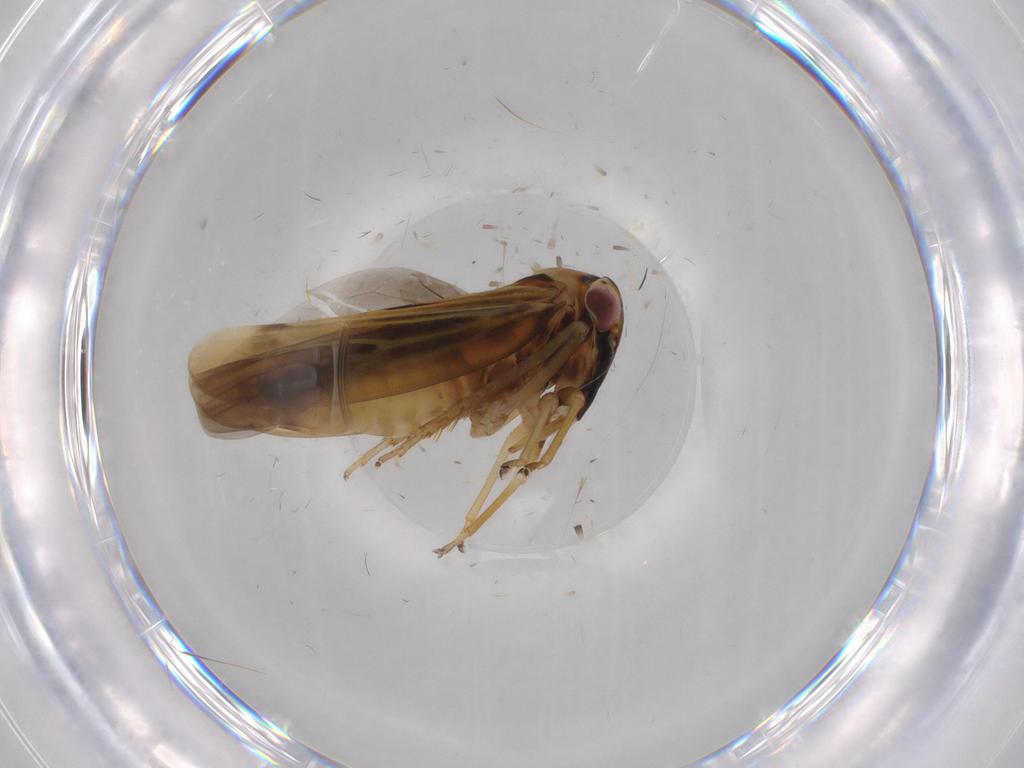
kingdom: Animalia
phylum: Arthropoda
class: Insecta
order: Hemiptera
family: Cicadellidae
